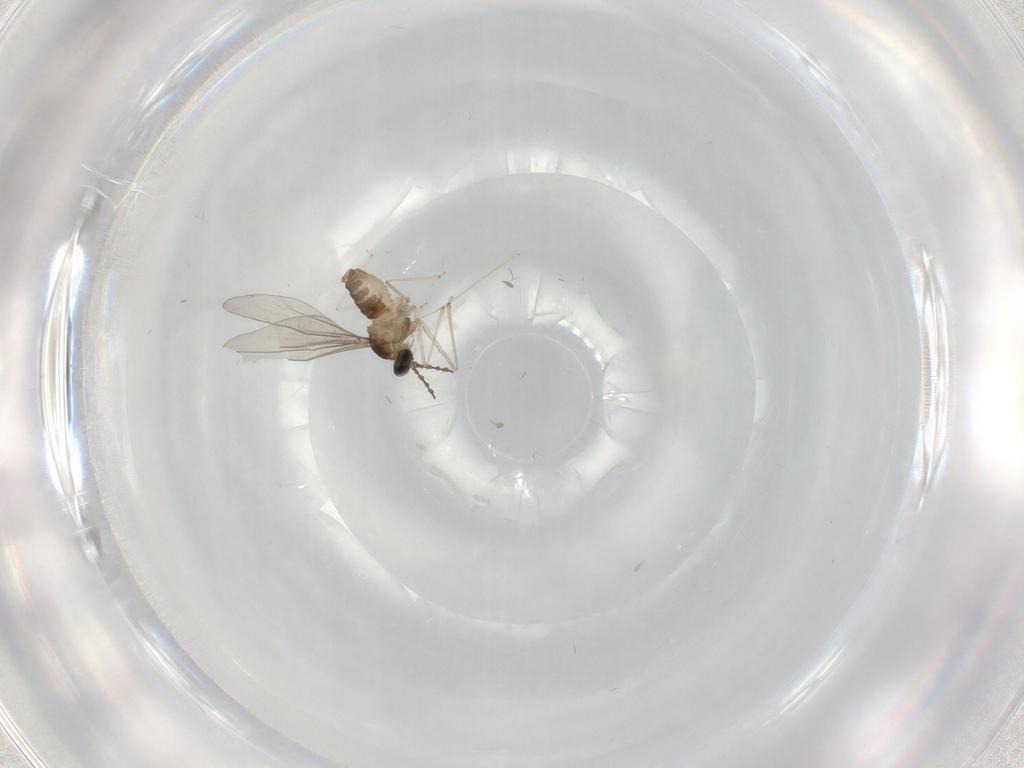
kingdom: Animalia
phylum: Arthropoda
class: Insecta
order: Diptera
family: Cecidomyiidae
